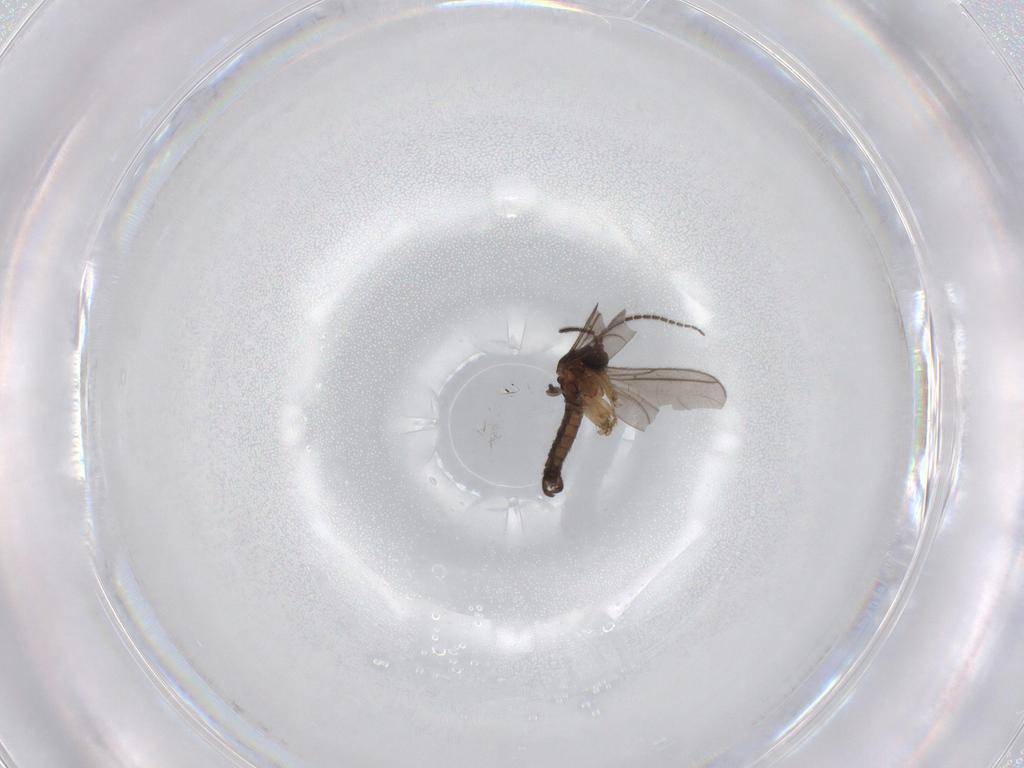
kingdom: Animalia
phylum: Arthropoda
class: Insecta
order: Diptera
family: Sciaridae
